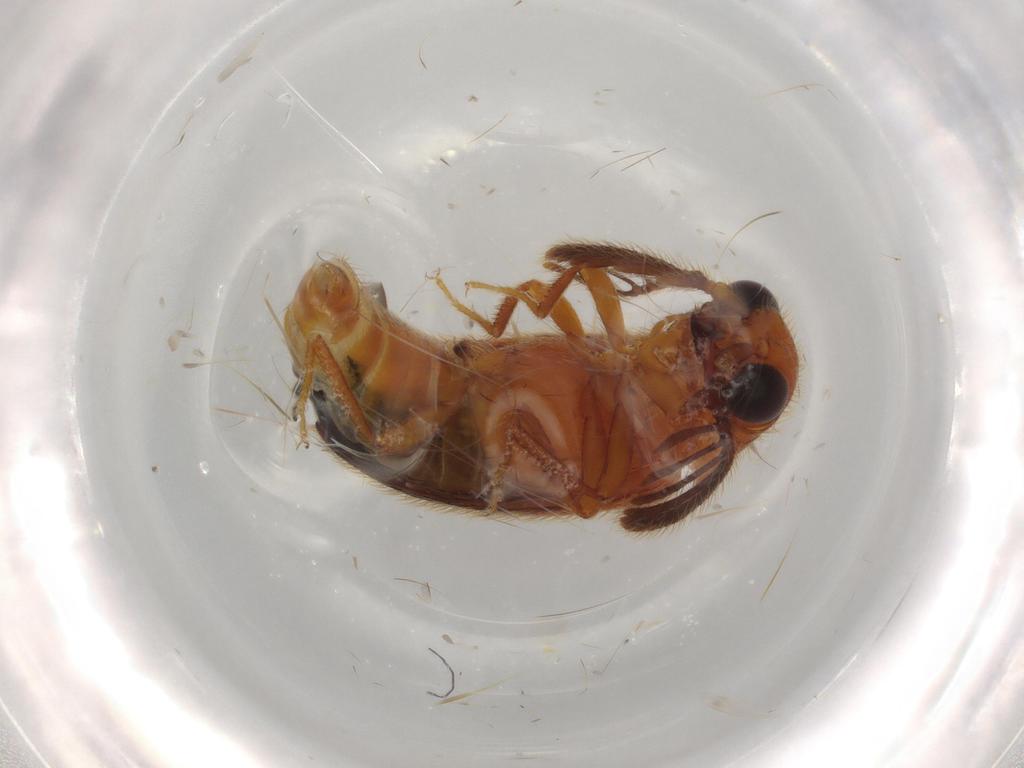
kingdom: Animalia
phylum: Arthropoda
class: Insecta
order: Coleoptera
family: Elateridae
